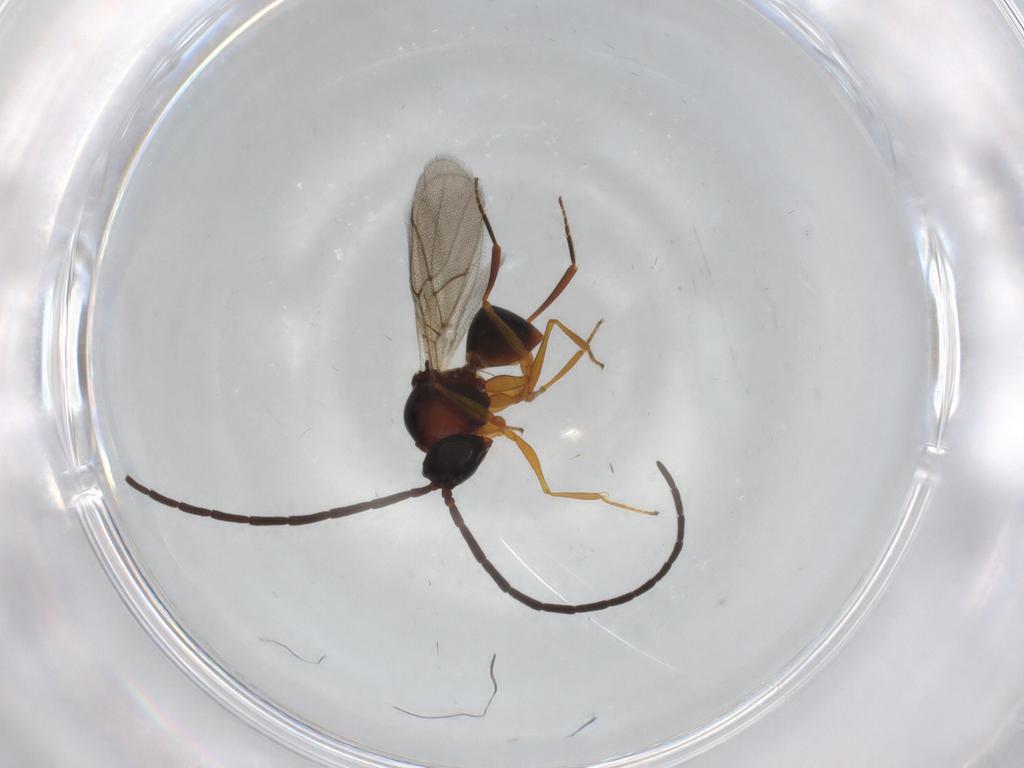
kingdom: Animalia
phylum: Arthropoda
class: Insecta
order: Hymenoptera
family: Figitidae
